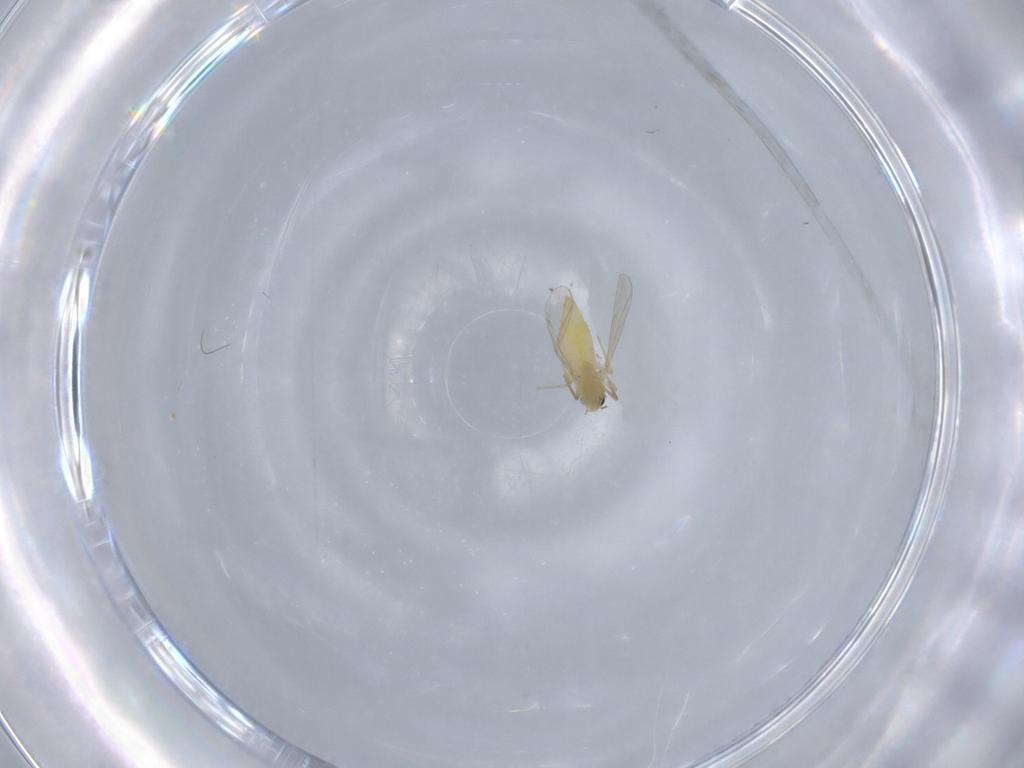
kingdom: Animalia
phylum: Arthropoda
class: Insecta
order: Diptera
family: Chironomidae
